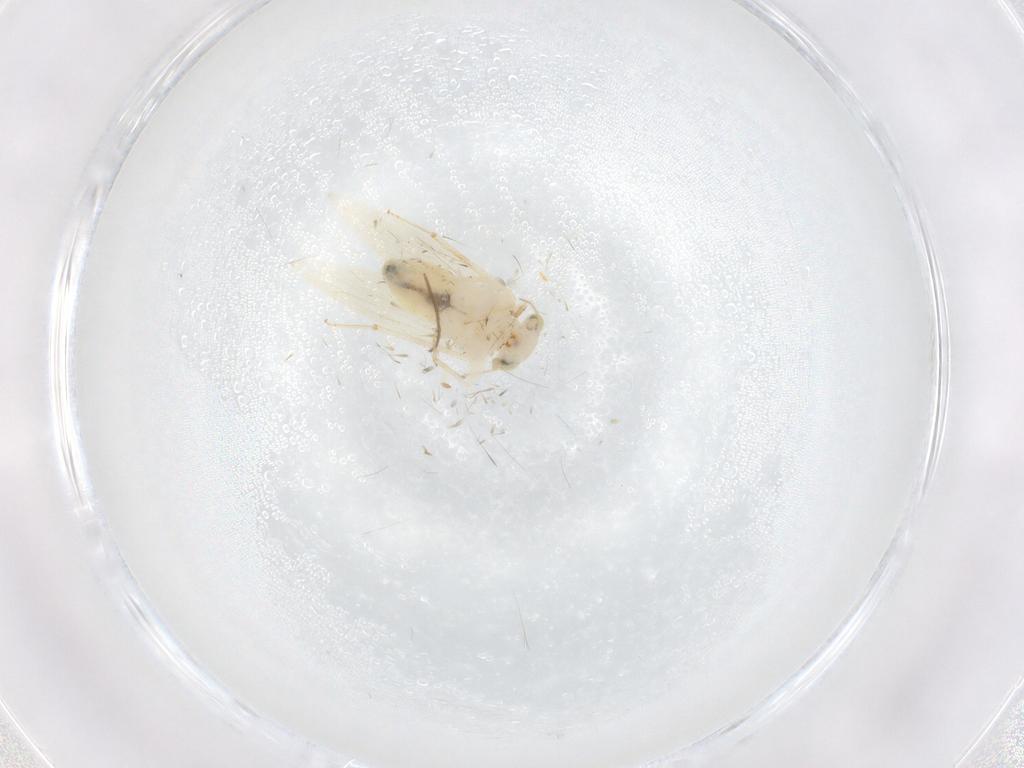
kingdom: Animalia
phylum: Arthropoda
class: Insecta
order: Psocodea
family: Lepidopsocidae
